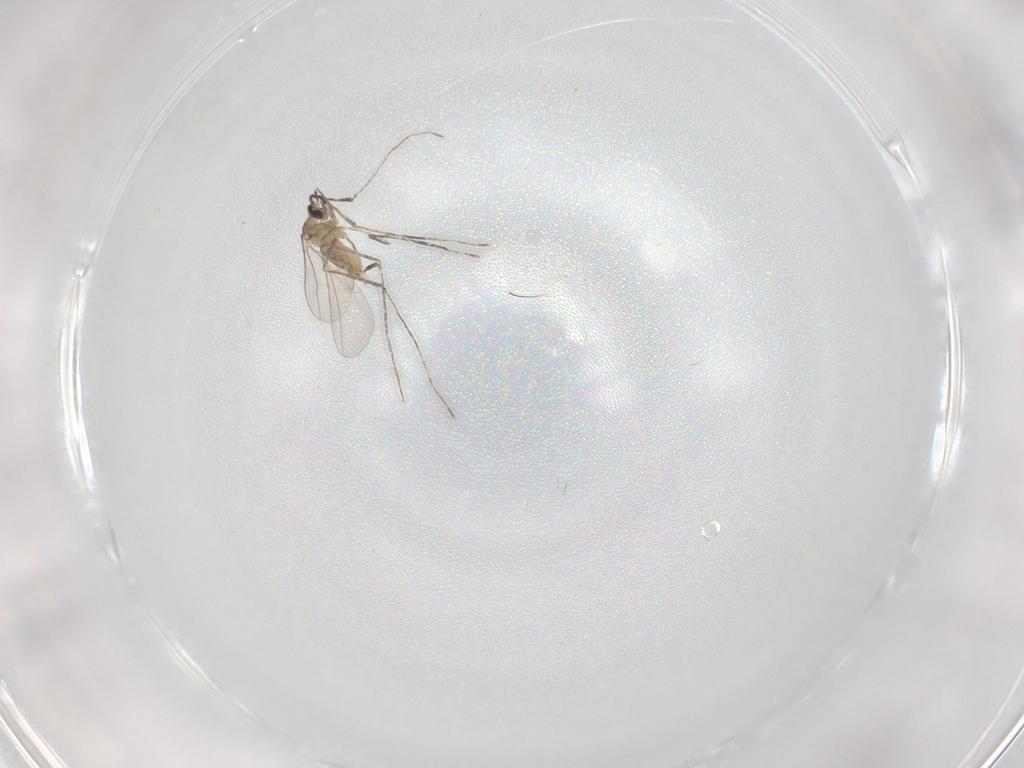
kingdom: Animalia
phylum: Arthropoda
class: Insecta
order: Diptera
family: Cecidomyiidae
